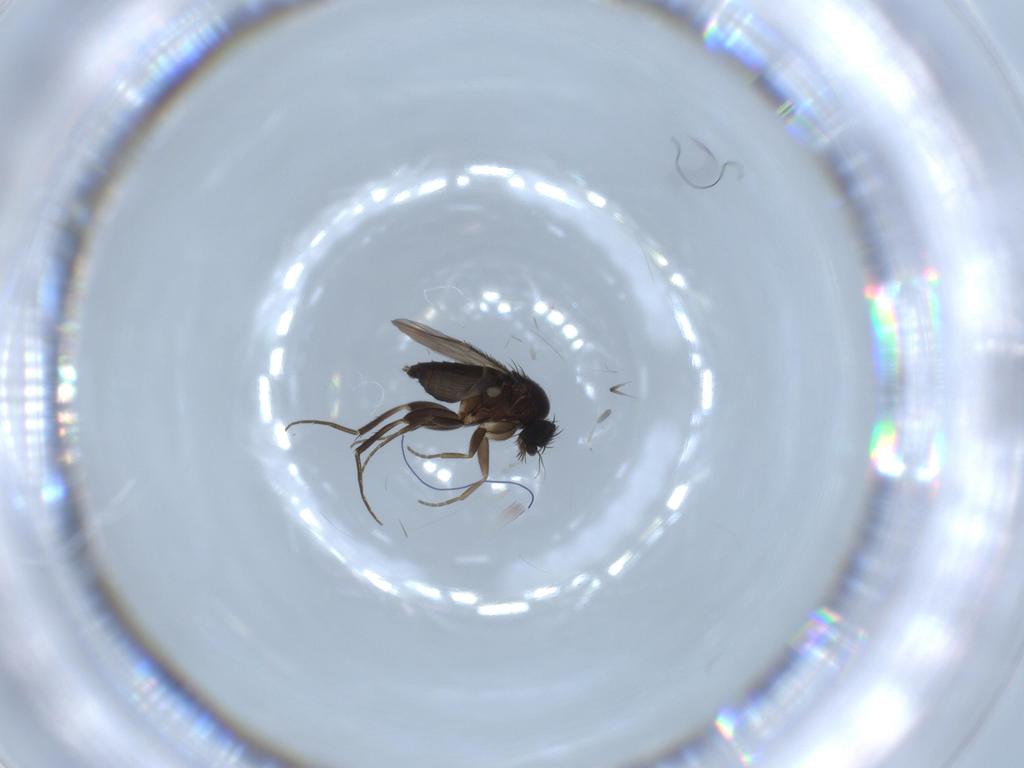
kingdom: Animalia
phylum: Arthropoda
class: Insecta
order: Diptera
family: Phoridae
